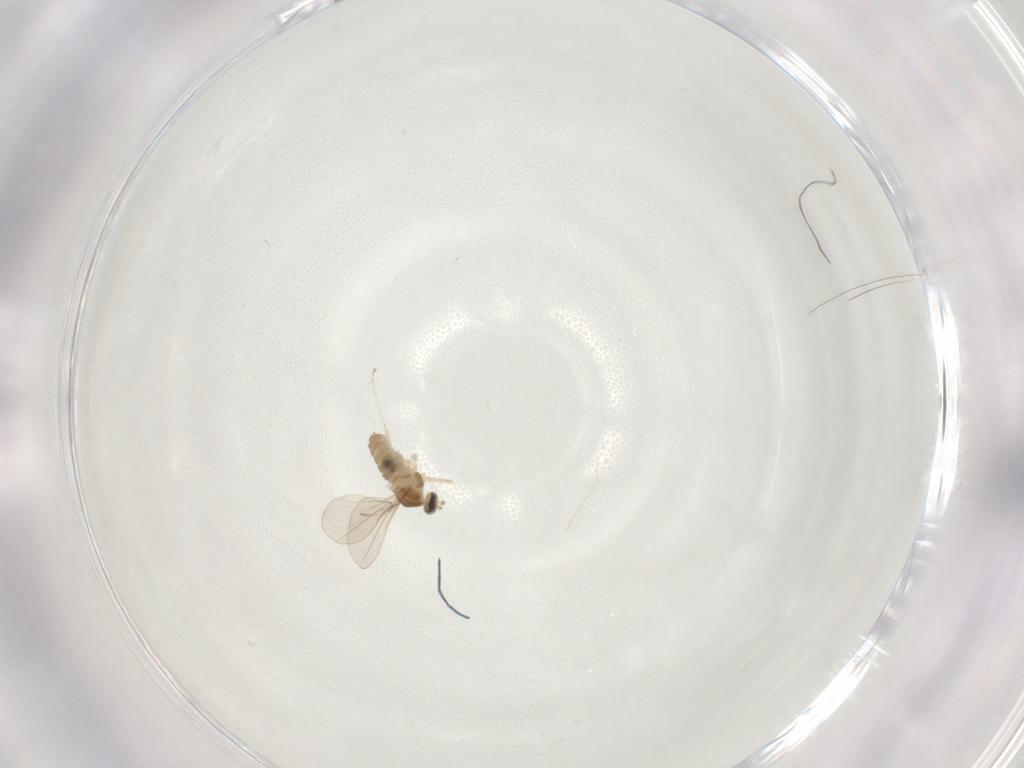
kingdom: Animalia
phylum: Arthropoda
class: Insecta
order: Diptera
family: Cecidomyiidae
